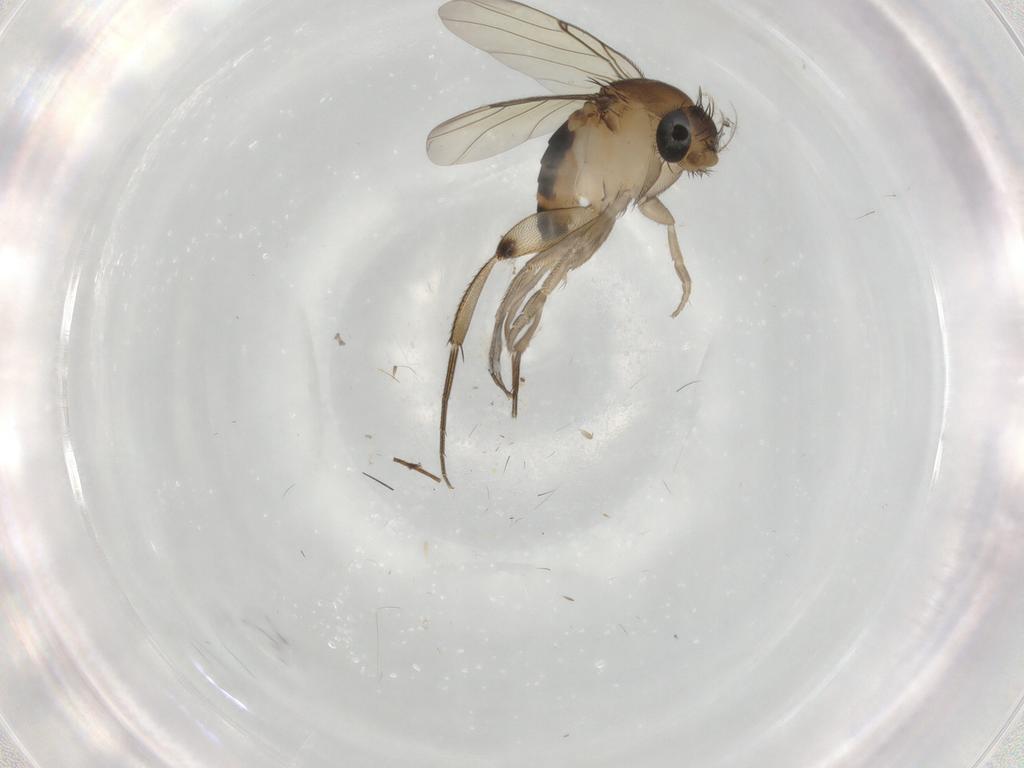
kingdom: Animalia
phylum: Arthropoda
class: Insecta
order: Diptera
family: Phoridae
